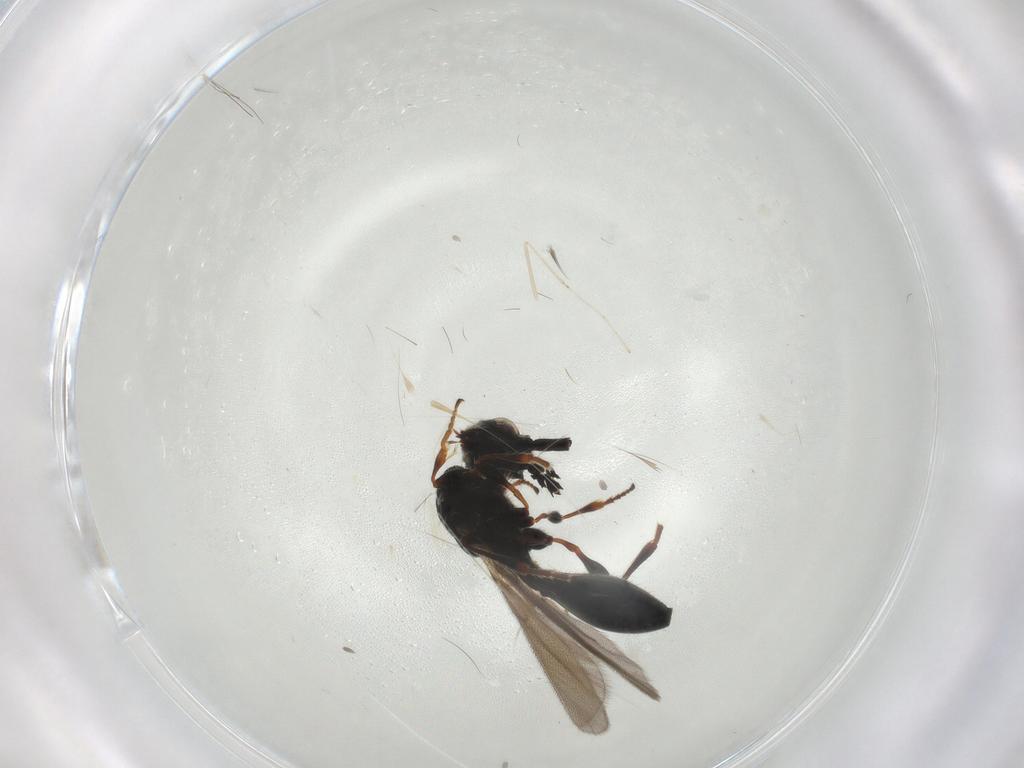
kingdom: Animalia
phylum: Arthropoda
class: Insecta
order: Hymenoptera
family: Diapriidae
